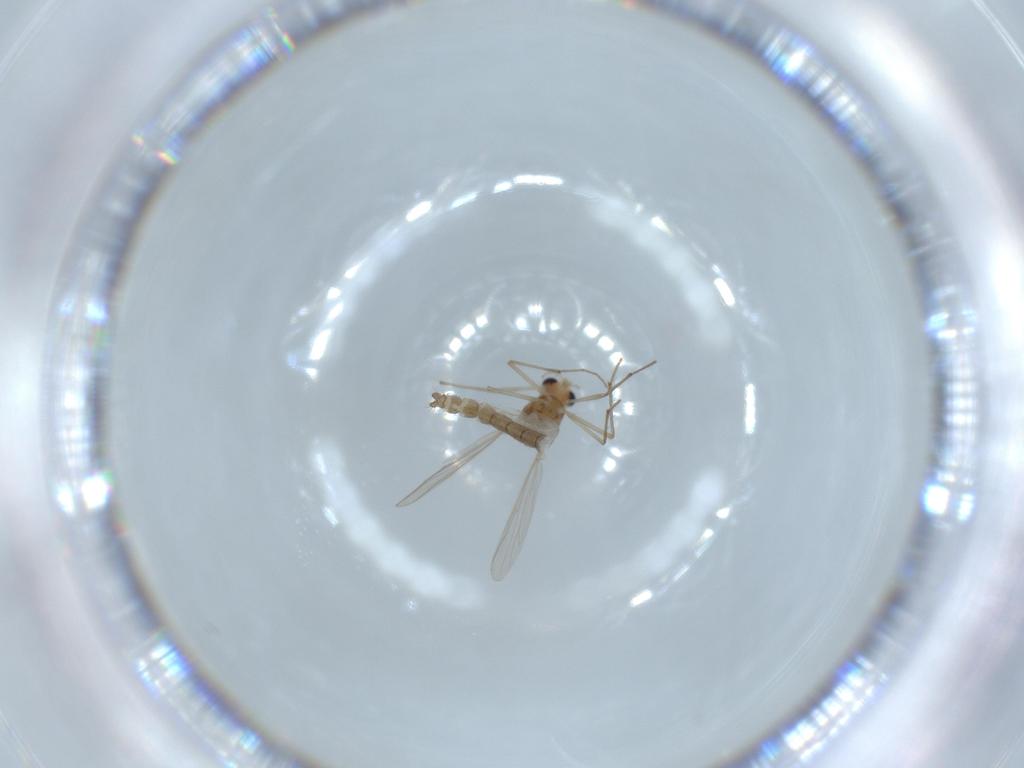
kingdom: Animalia
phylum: Arthropoda
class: Insecta
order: Diptera
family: Chironomidae
